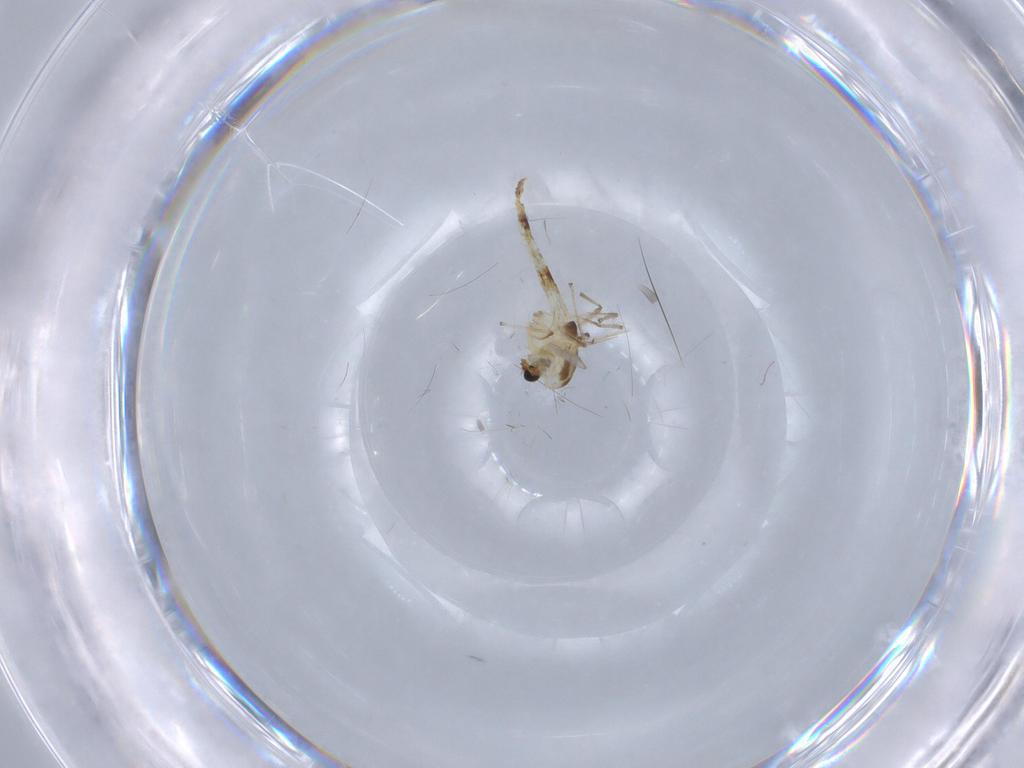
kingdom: Animalia
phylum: Arthropoda
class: Insecta
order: Diptera
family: Chironomidae
